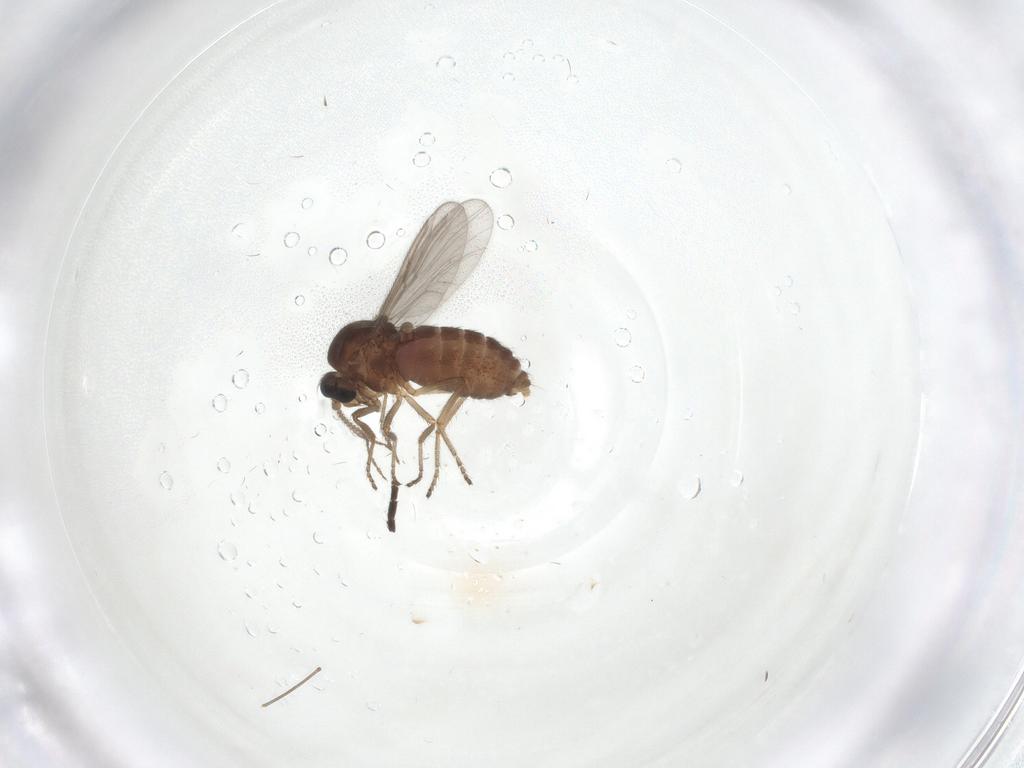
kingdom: Animalia
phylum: Arthropoda
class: Insecta
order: Diptera
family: Ceratopogonidae
